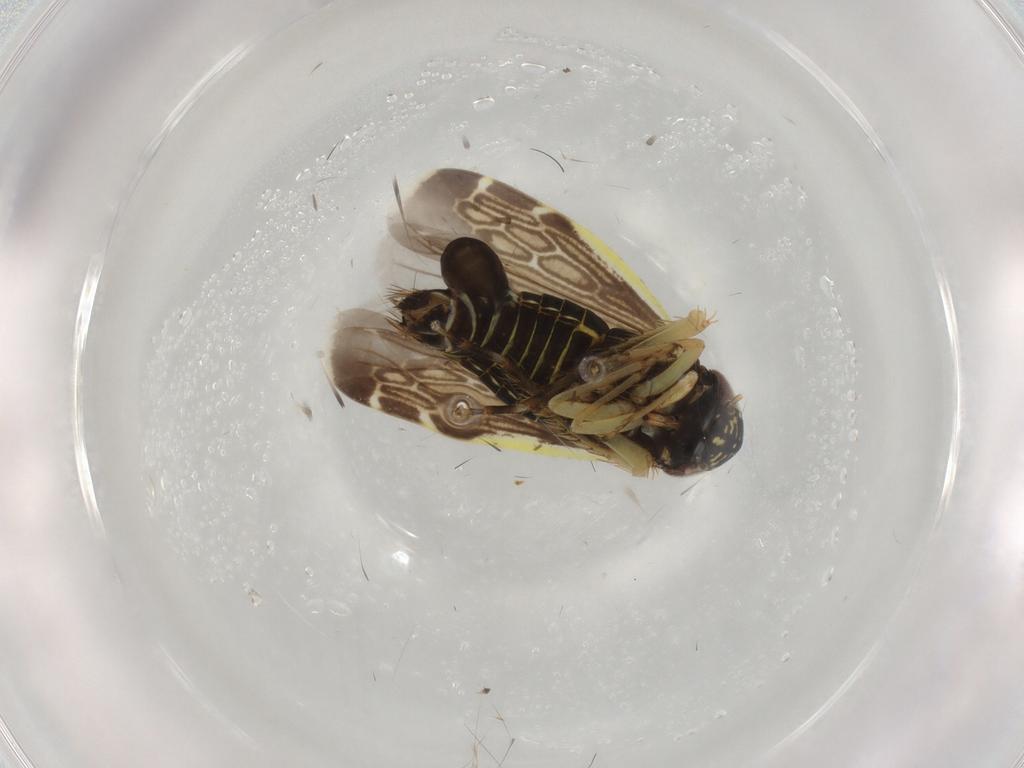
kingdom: Animalia
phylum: Arthropoda
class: Insecta
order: Hemiptera
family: Cicadellidae
